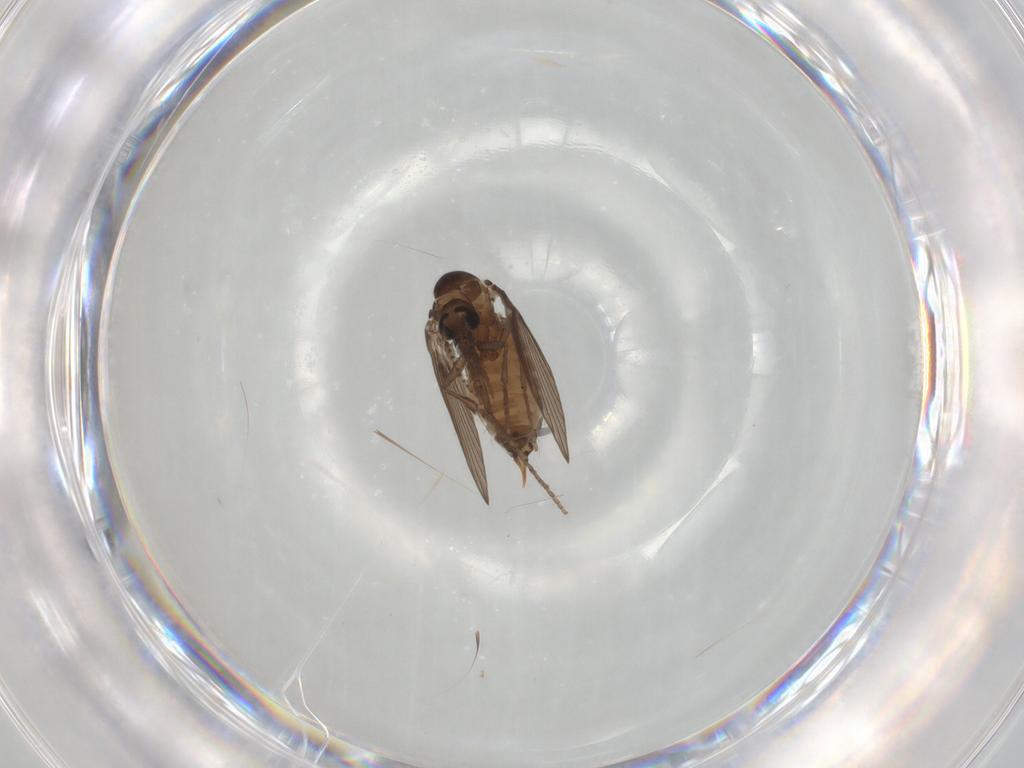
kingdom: Animalia
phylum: Arthropoda
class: Insecta
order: Diptera
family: Psychodidae
